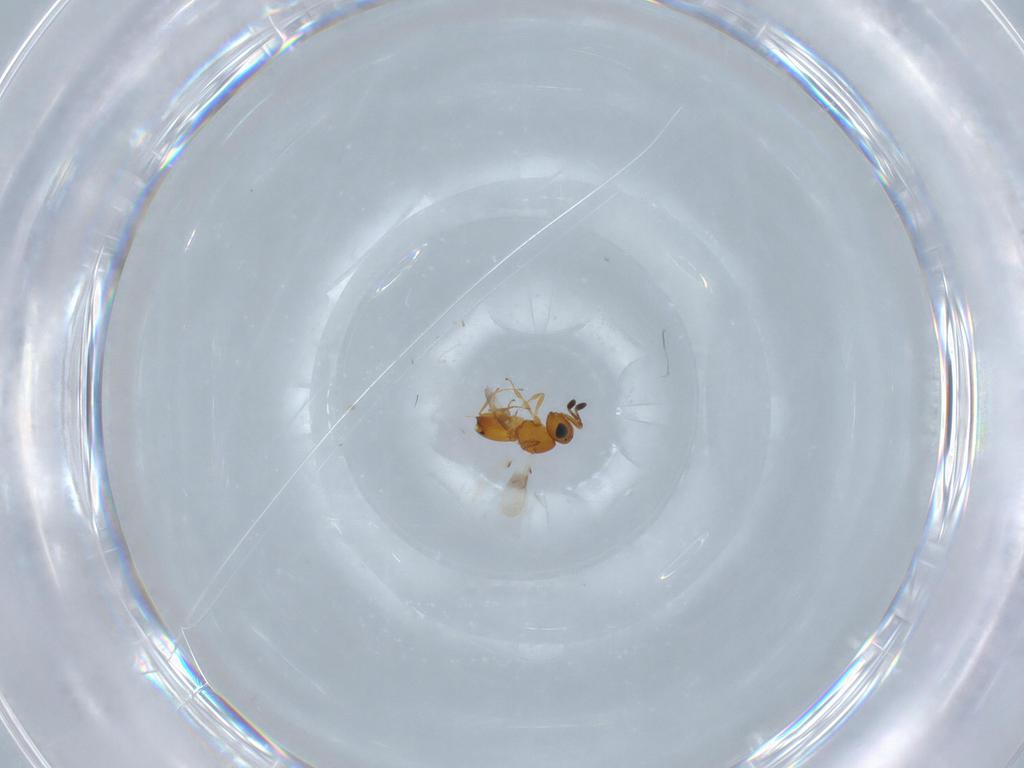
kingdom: Animalia
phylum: Arthropoda
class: Insecta
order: Hymenoptera
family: Scelionidae
